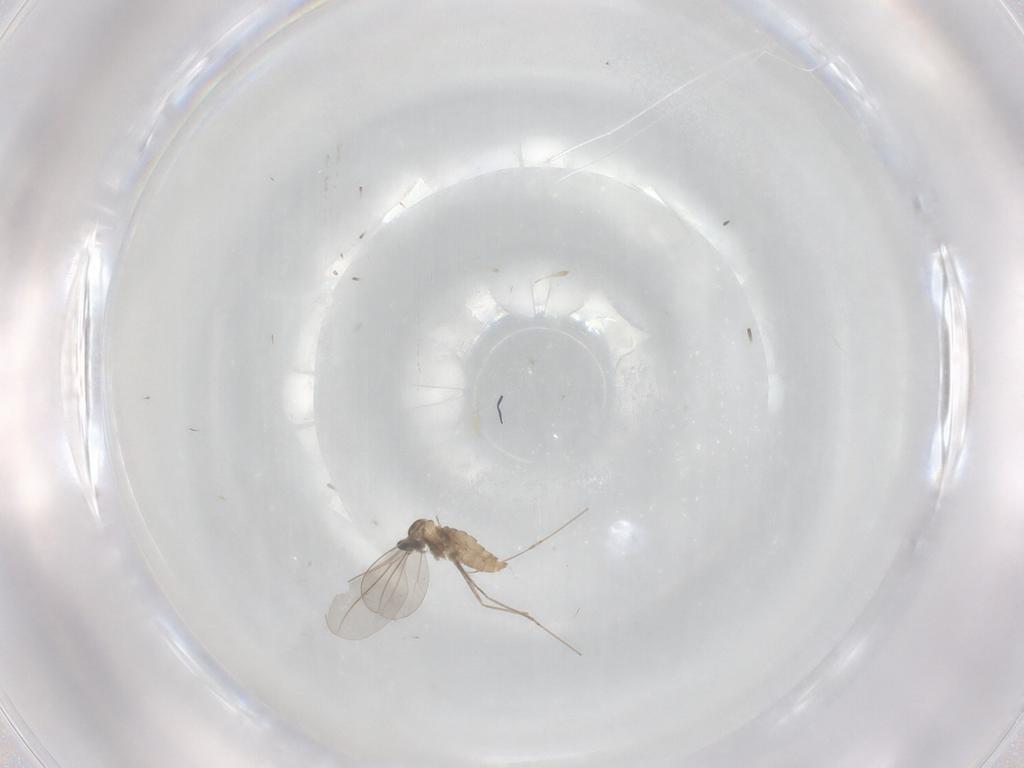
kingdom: Animalia
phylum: Arthropoda
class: Insecta
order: Diptera
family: Cecidomyiidae
